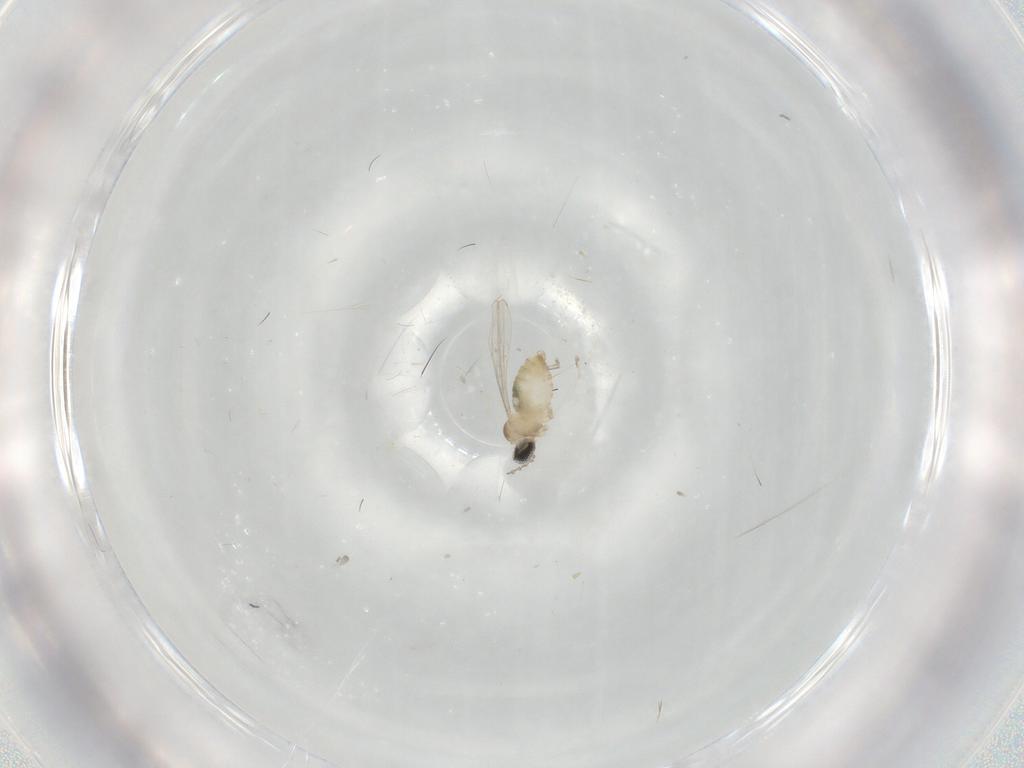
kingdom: Animalia
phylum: Arthropoda
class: Insecta
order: Diptera
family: Cecidomyiidae
